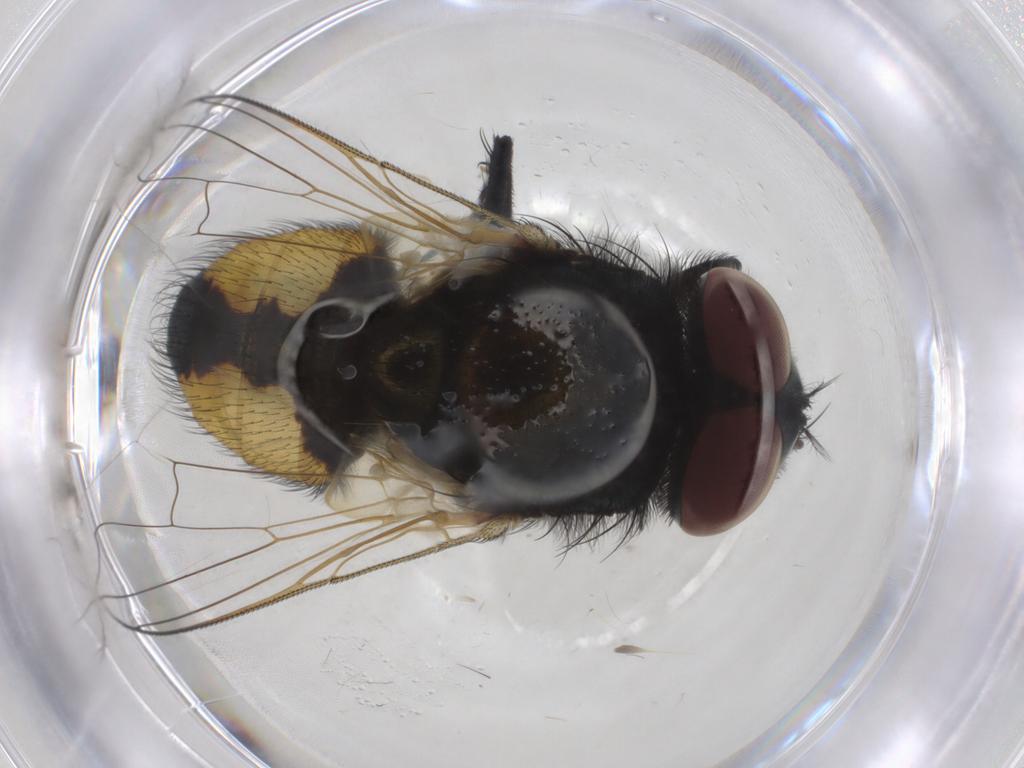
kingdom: Animalia
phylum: Arthropoda
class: Insecta
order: Diptera
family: Muscidae
